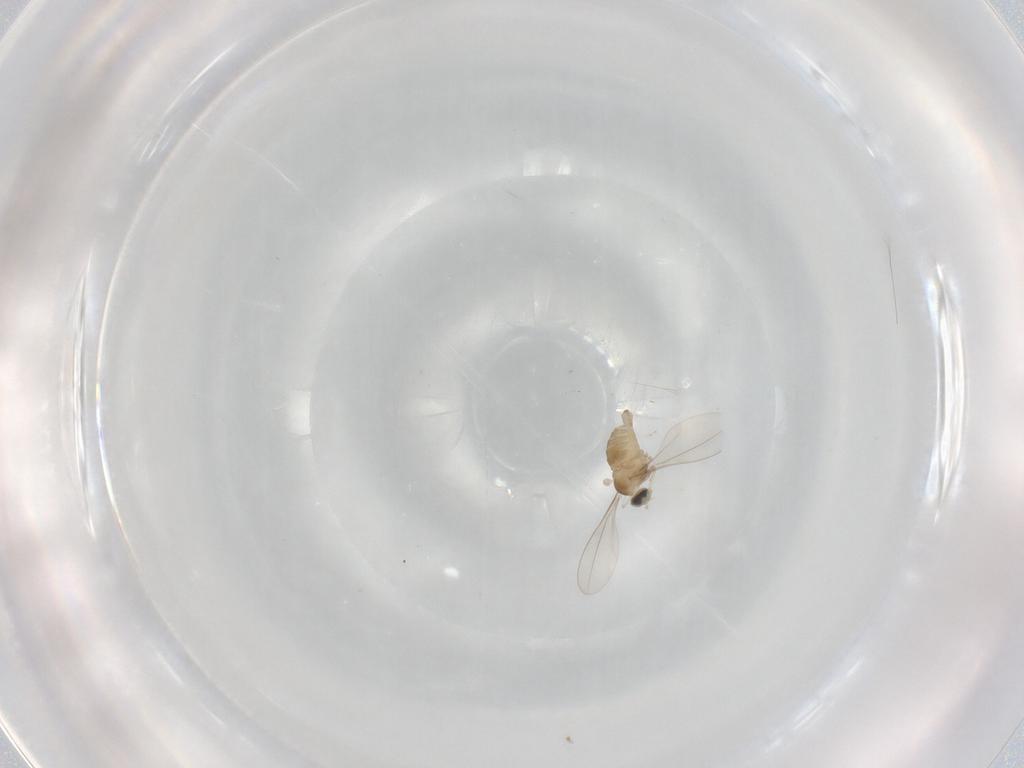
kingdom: Animalia
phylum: Arthropoda
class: Insecta
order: Diptera
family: Cecidomyiidae
